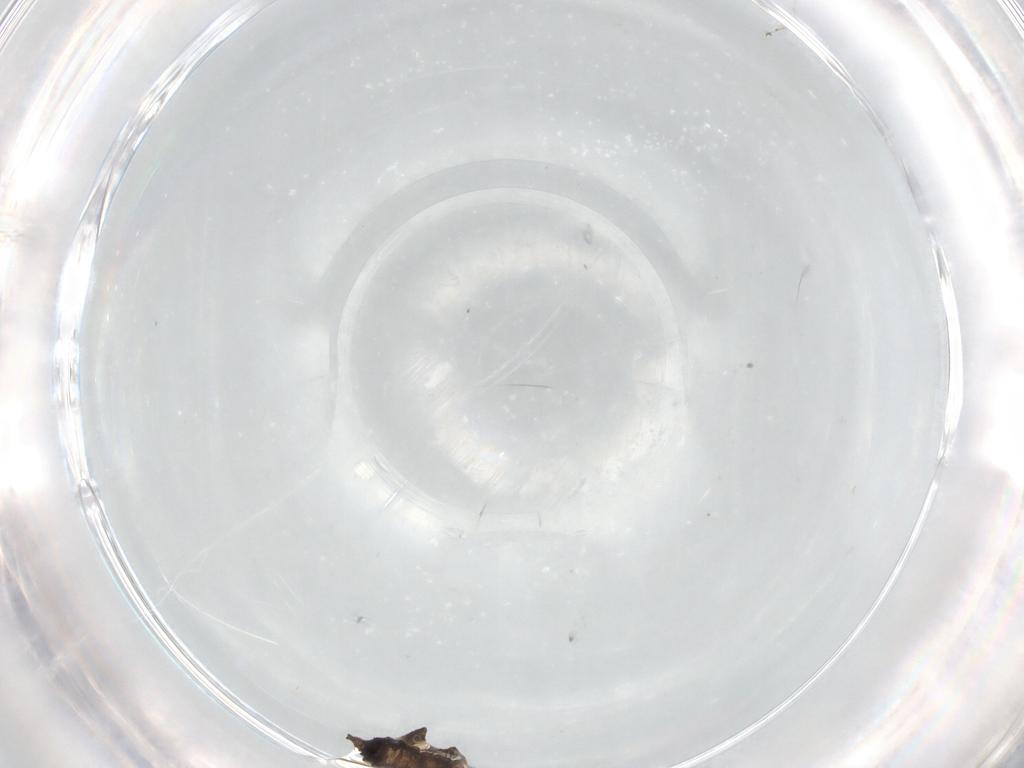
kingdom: Animalia
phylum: Arthropoda
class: Insecta
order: Diptera
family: Sciaridae
